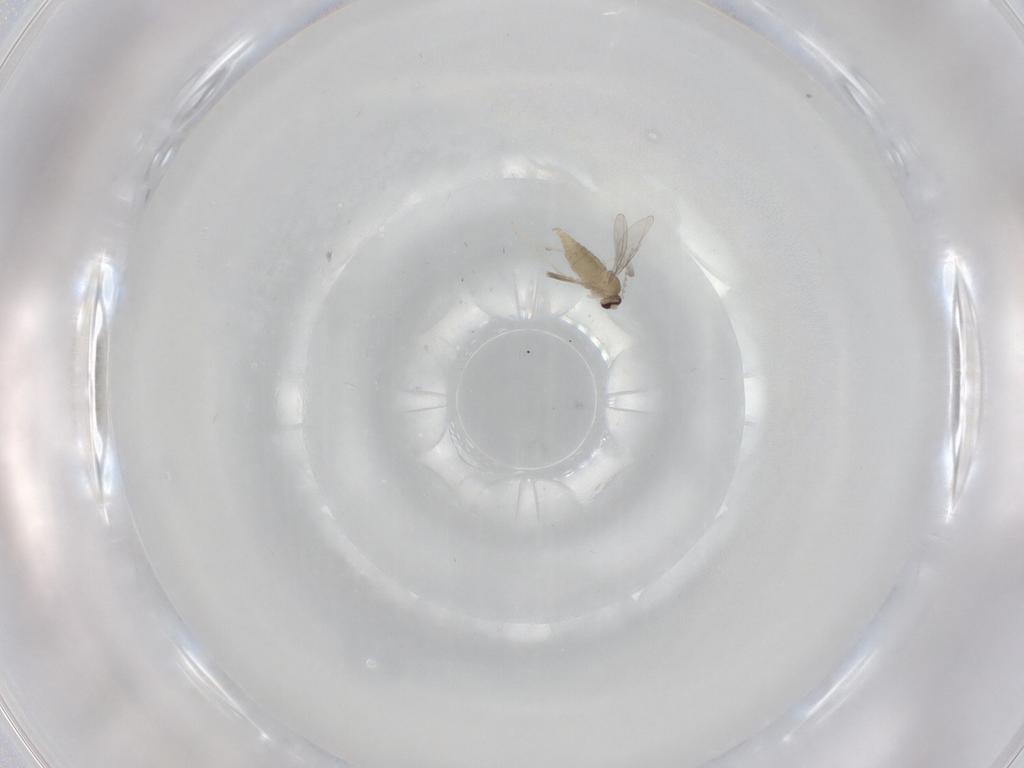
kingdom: Animalia
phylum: Arthropoda
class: Insecta
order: Diptera
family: Cecidomyiidae
